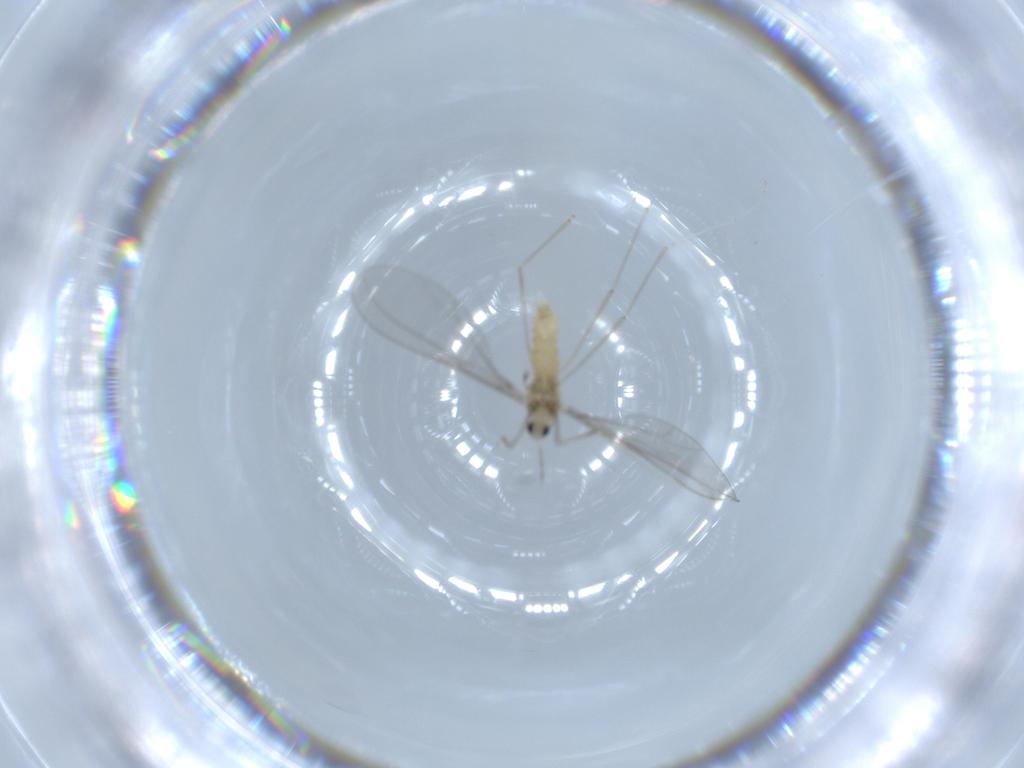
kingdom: Animalia
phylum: Arthropoda
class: Insecta
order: Diptera
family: Cecidomyiidae
